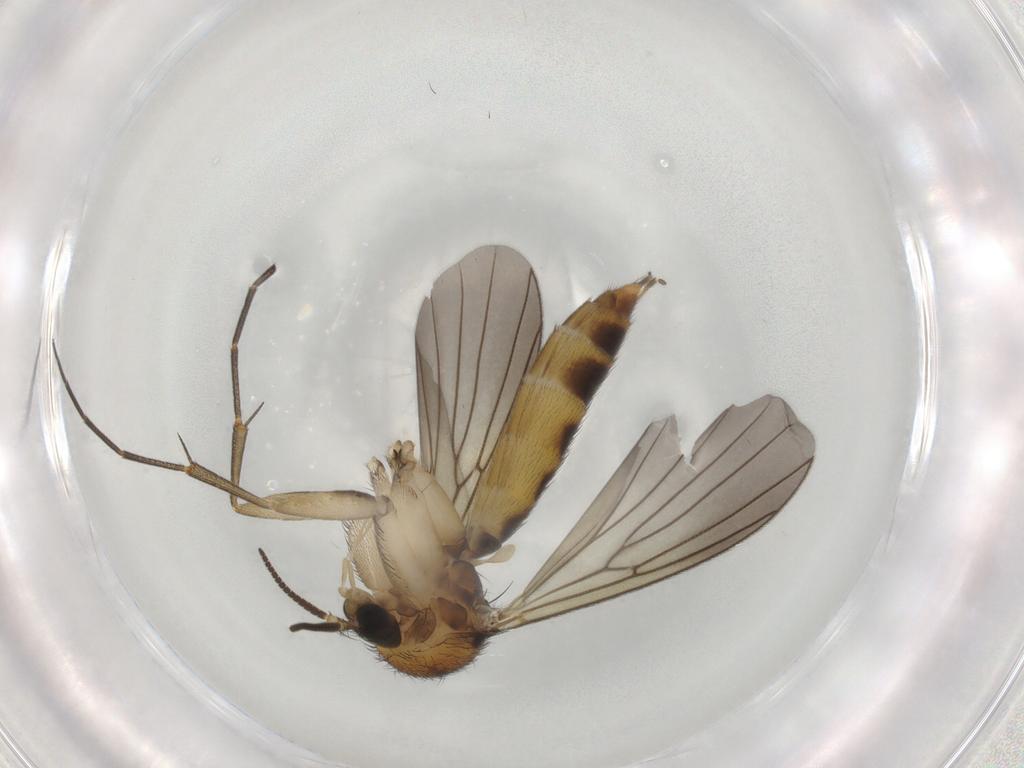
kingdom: Animalia
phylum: Arthropoda
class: Insecta
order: Diptera
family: Mycetophilidae
